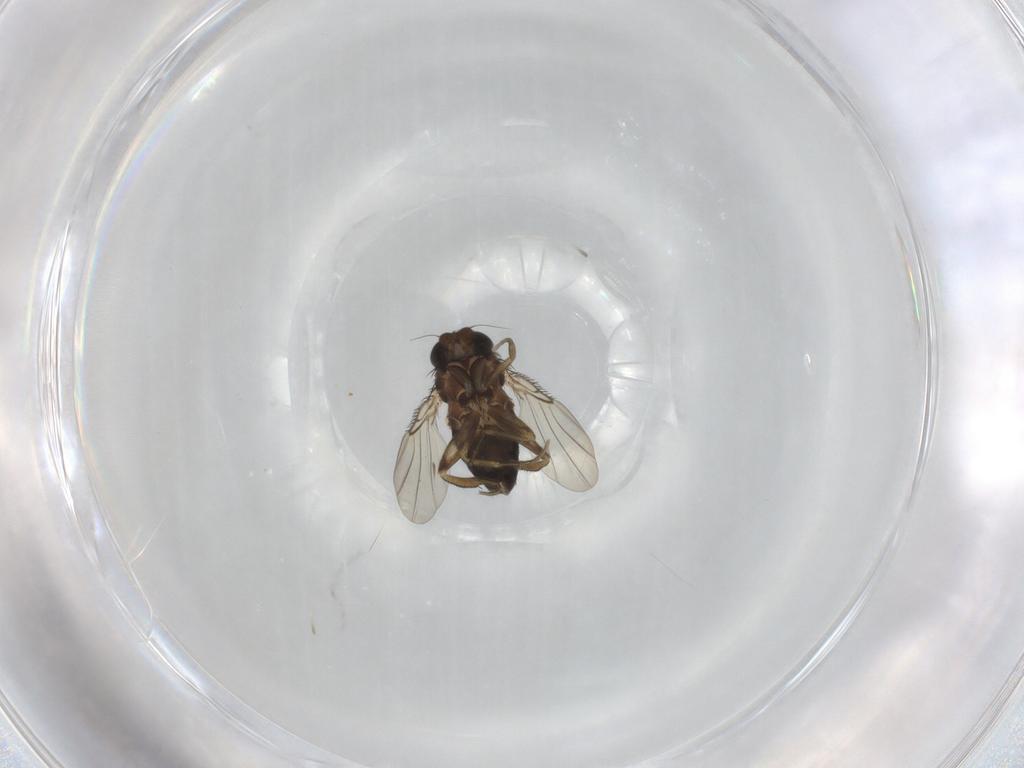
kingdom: Animalia
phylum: Arthropoda
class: Insecta
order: Diptera
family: Phoridae
